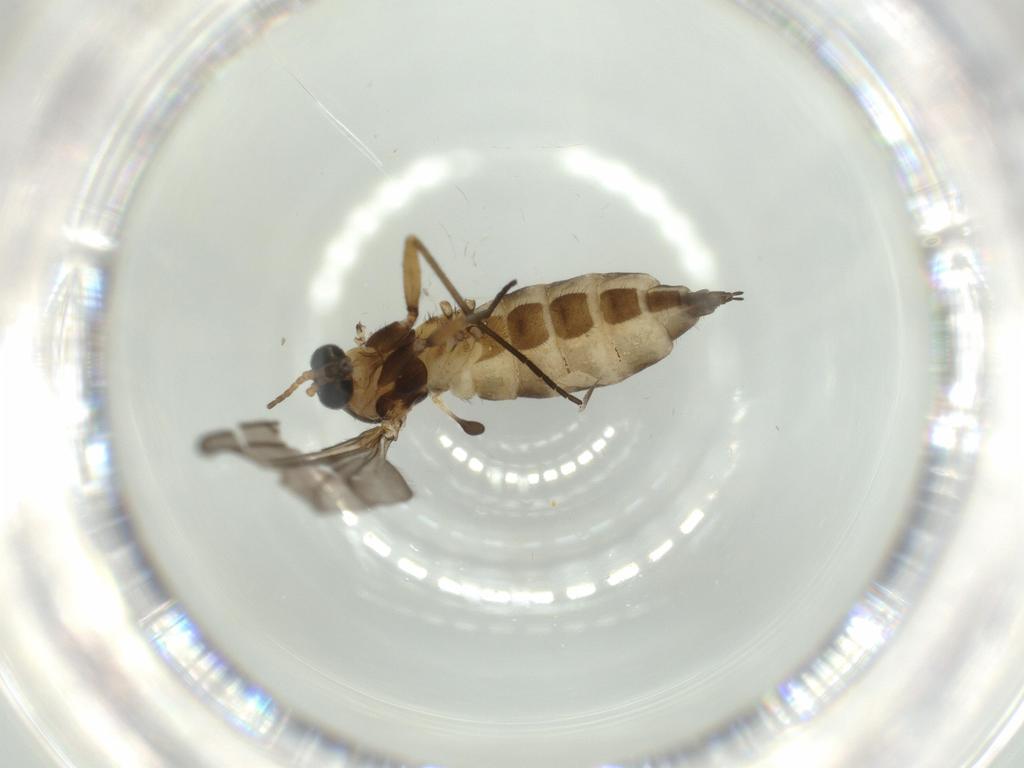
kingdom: Animalia
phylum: Arthropoda
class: Insecta
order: Diptera
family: Sciaridae
